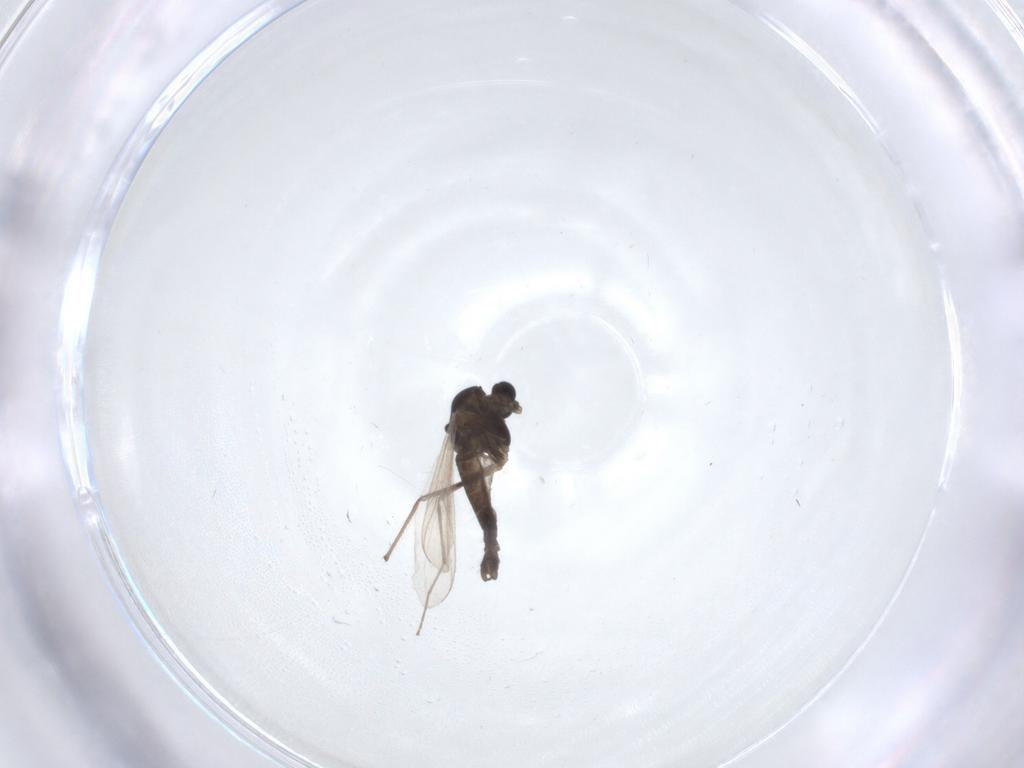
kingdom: Animalia
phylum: Arthropoda
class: Insecta
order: Diptera
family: Chironomidae
